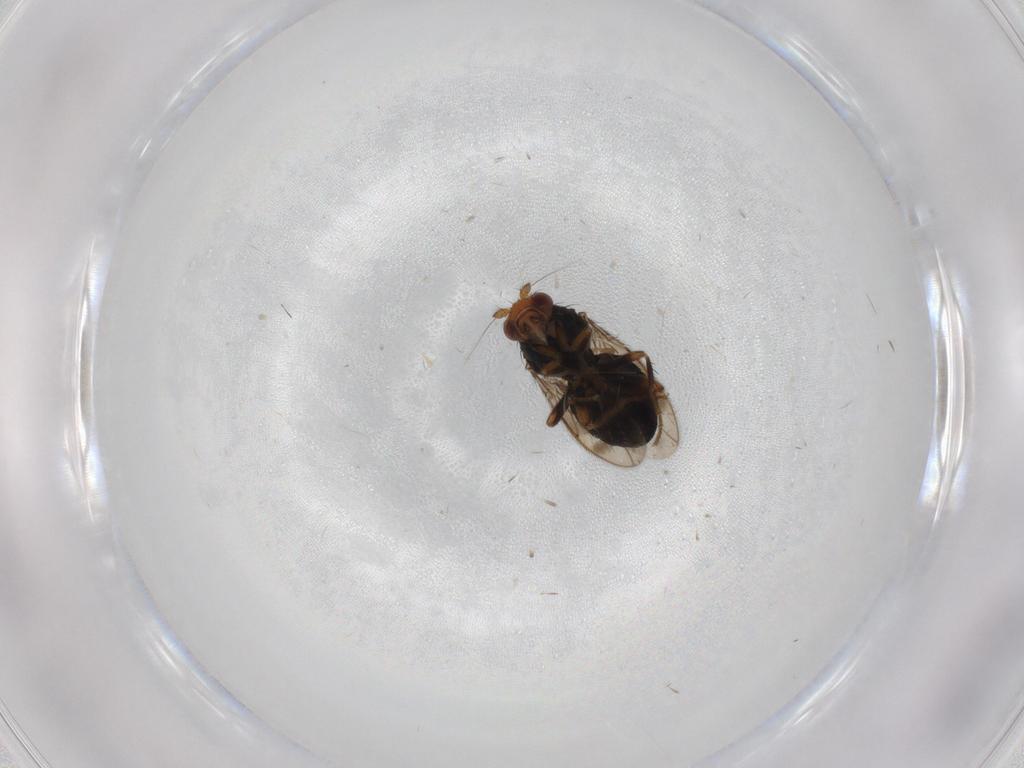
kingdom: Animalia
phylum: Arthropoda
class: Insecta
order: Diptera
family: Sphaeroceridae
